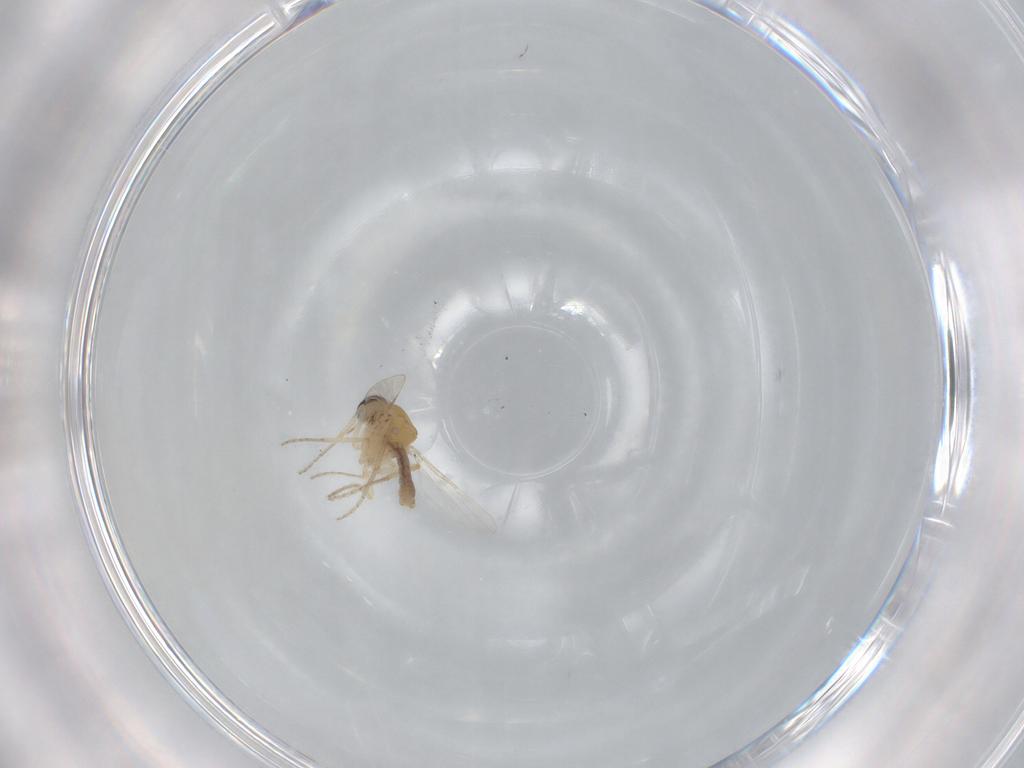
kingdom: Animalia
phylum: Arthropoda
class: Insecta
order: Diptera
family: Ceratopogonidae
